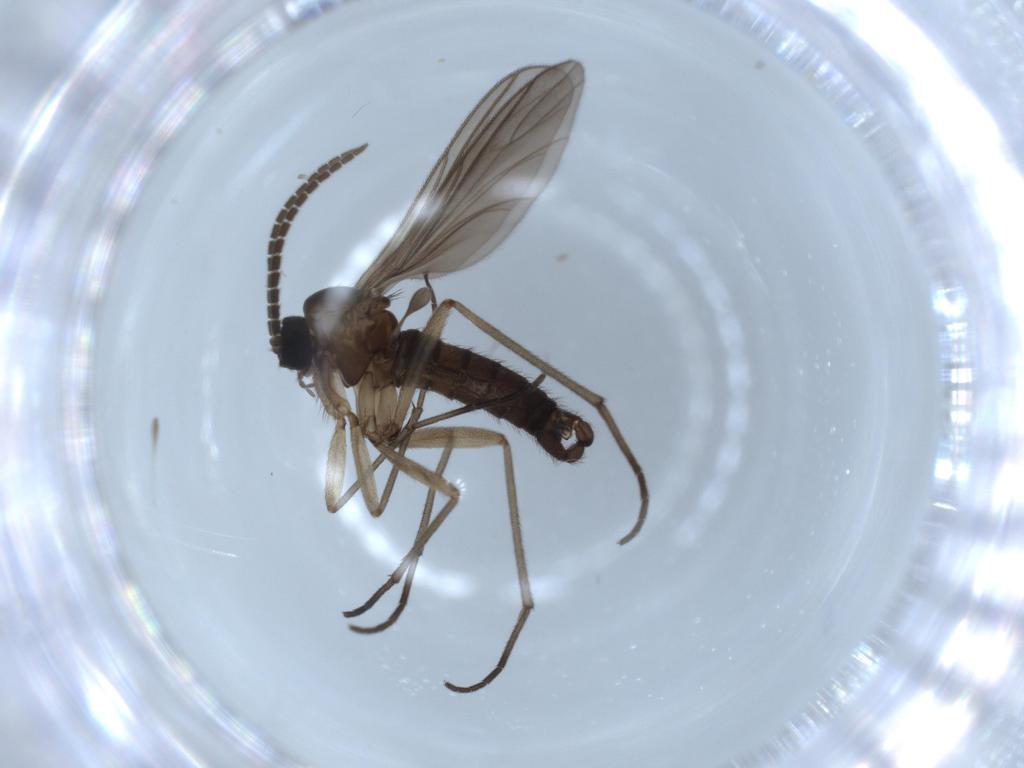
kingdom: Animalia
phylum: Arthropoda
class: Insecta
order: Diptera
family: Sciaridae
